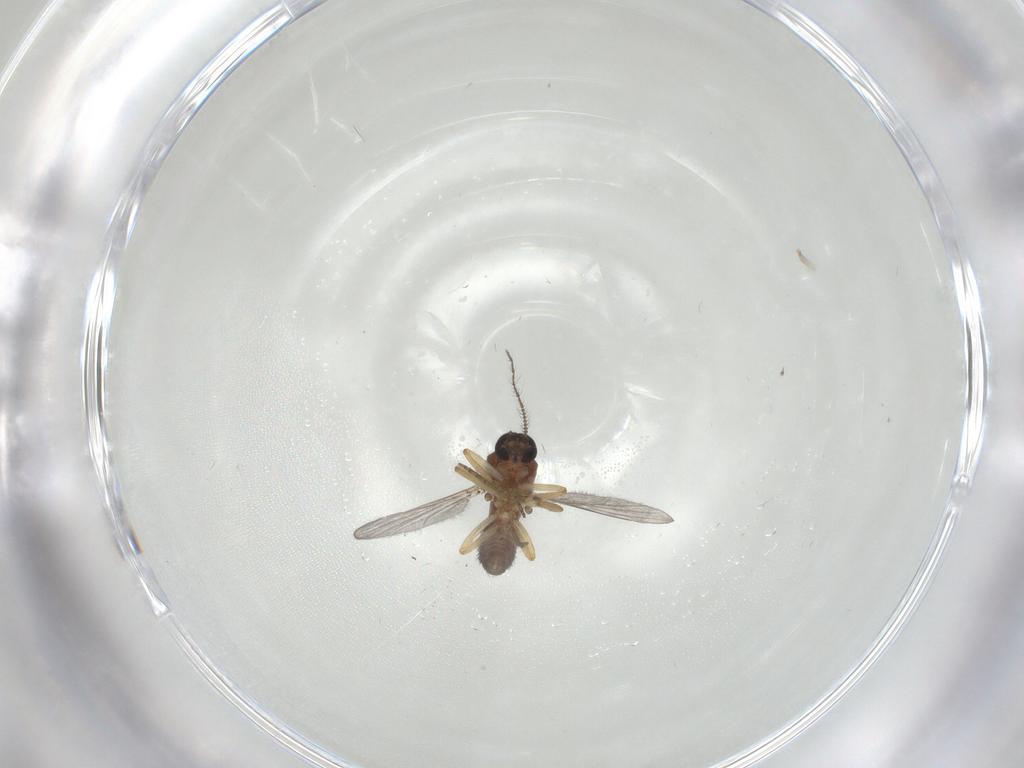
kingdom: Animalia
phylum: Arthropoda
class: Insecta
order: Diptera
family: Ceratopogonidae
